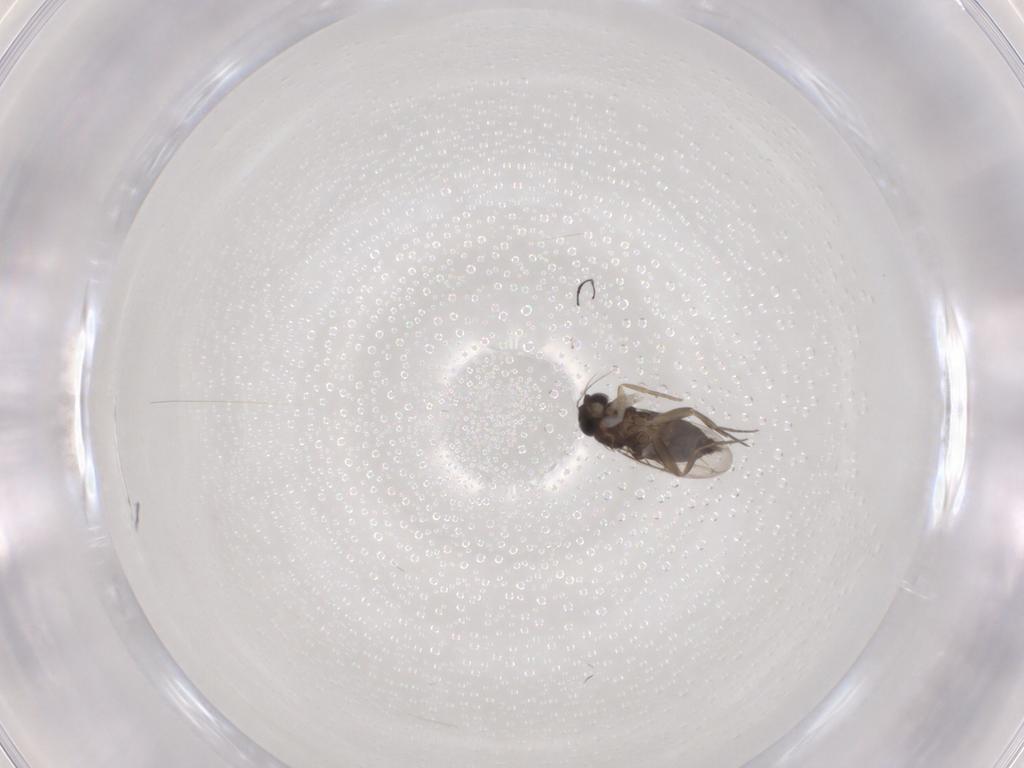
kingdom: Animalia
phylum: Arthropoda
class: Insecta
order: Diptera
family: Phoridae
